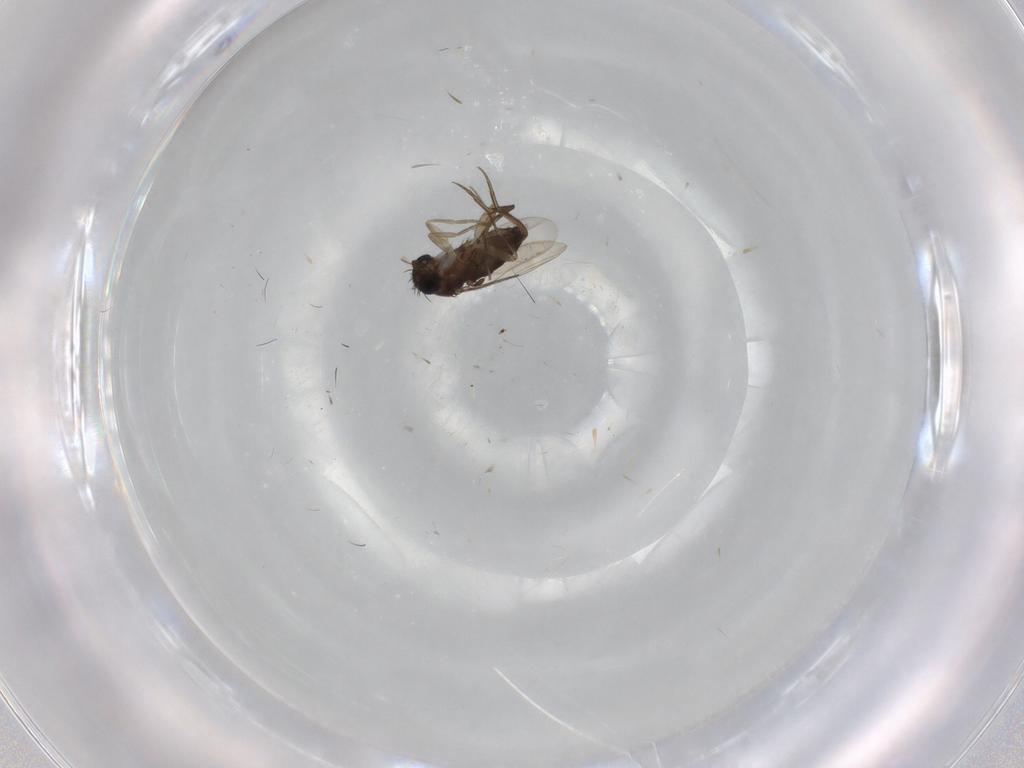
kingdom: Animalia
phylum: Arthropoda
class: Insecta
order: Diptera
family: Phoridae
